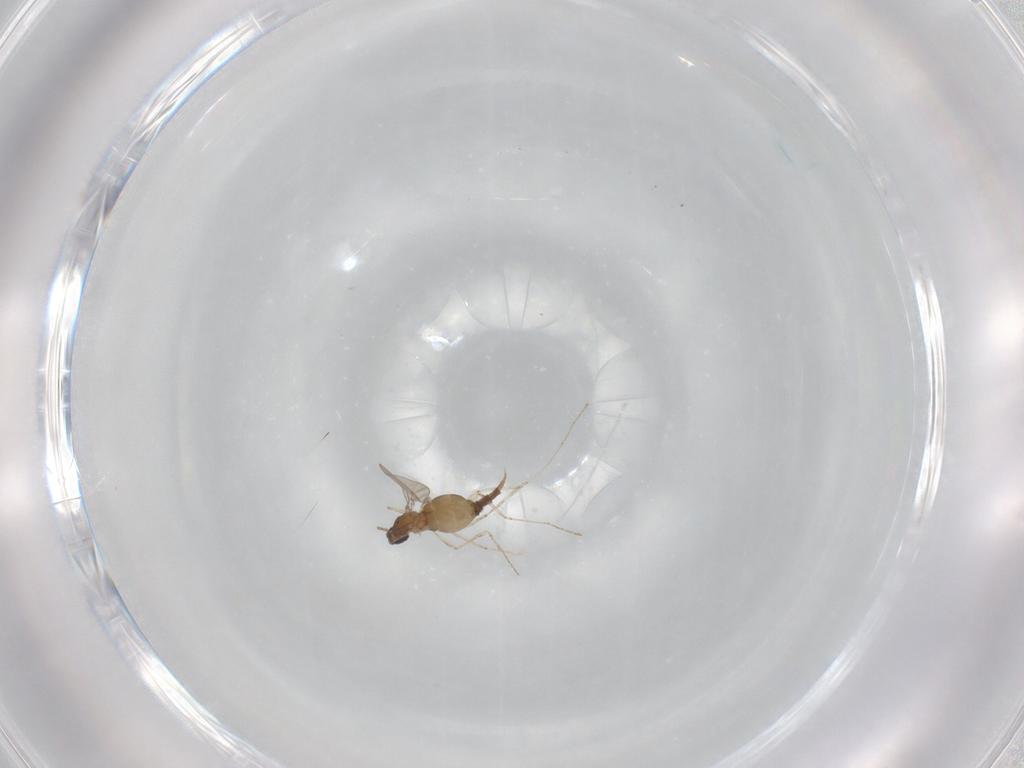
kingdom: Animalia
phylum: Arthropoda
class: Insecta
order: Diptera
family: Cecidomyiidae
